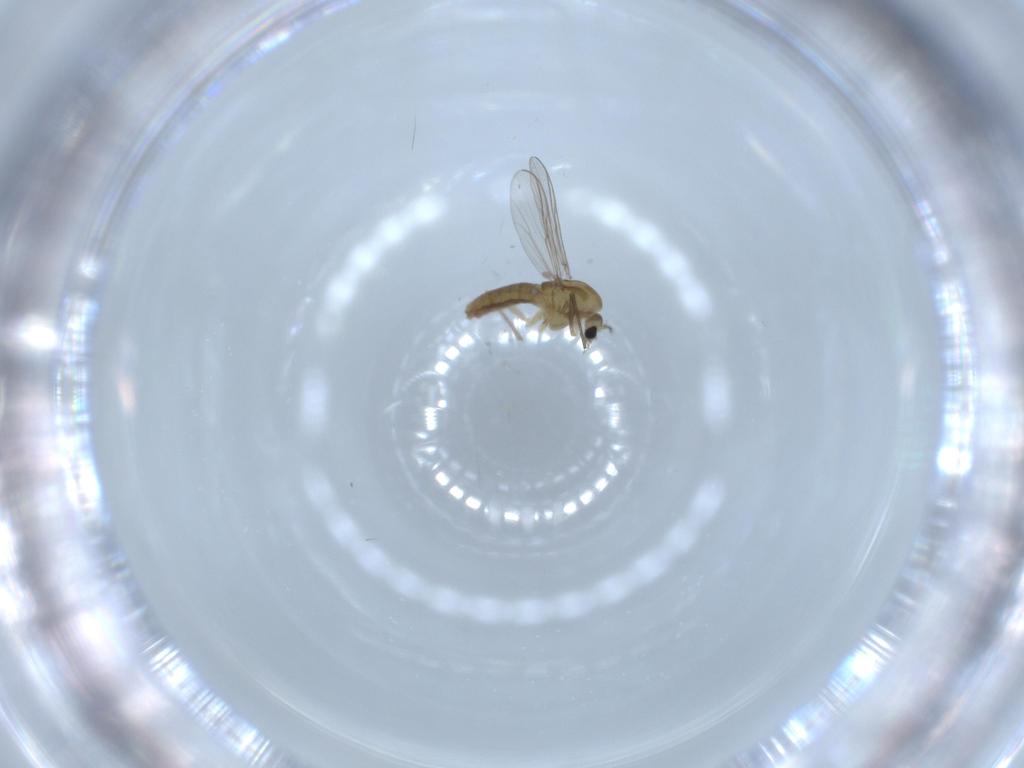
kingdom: Animalia
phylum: Arthropoda
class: Insecta
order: Diptera
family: Chironomidae
